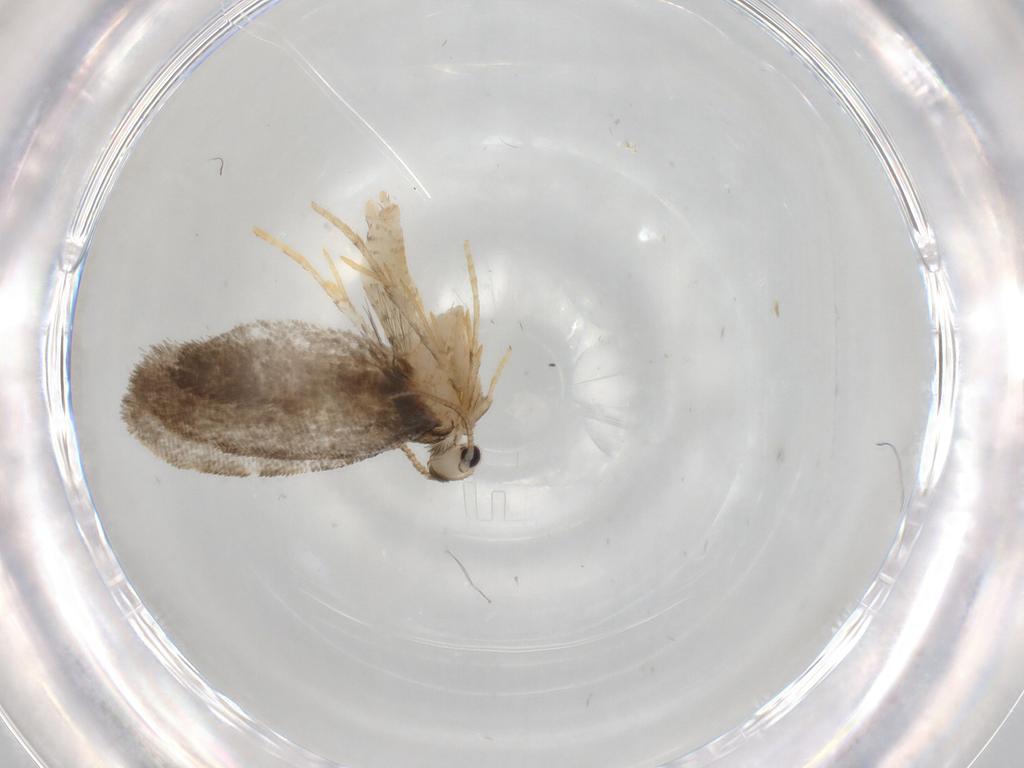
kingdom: Animalia
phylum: Arthropoda
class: Insecta
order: Lepidoptera
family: Psychidae
